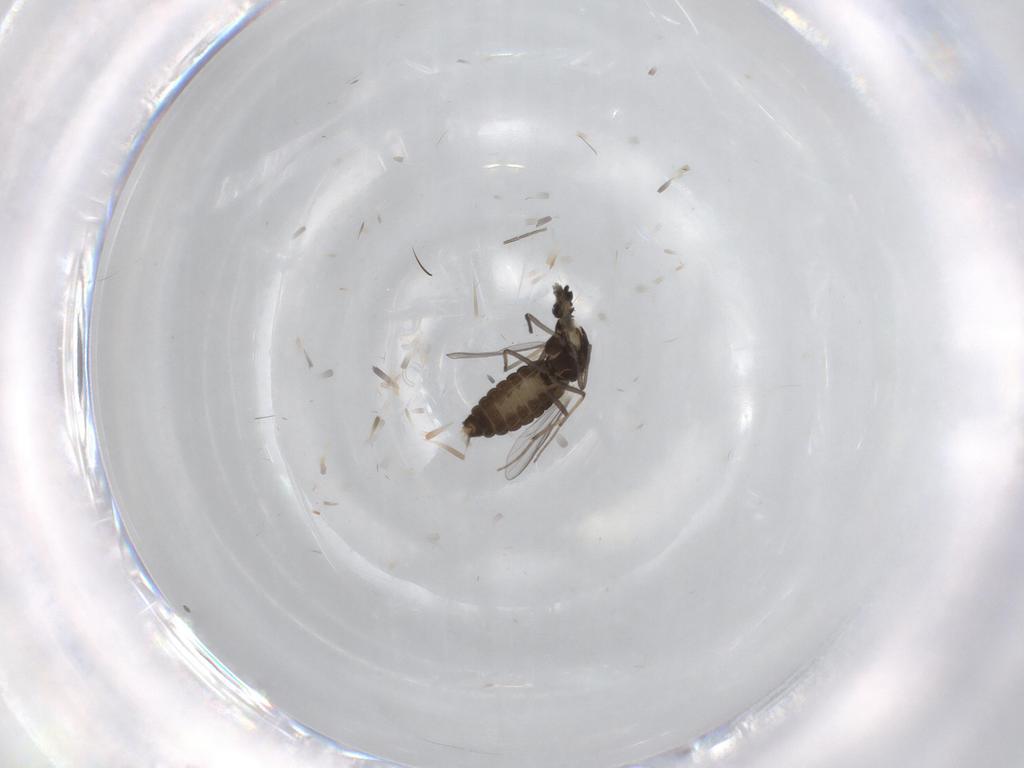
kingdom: Animalia
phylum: Arthropoda
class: Insecta
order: Diptera
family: Chironomidae
